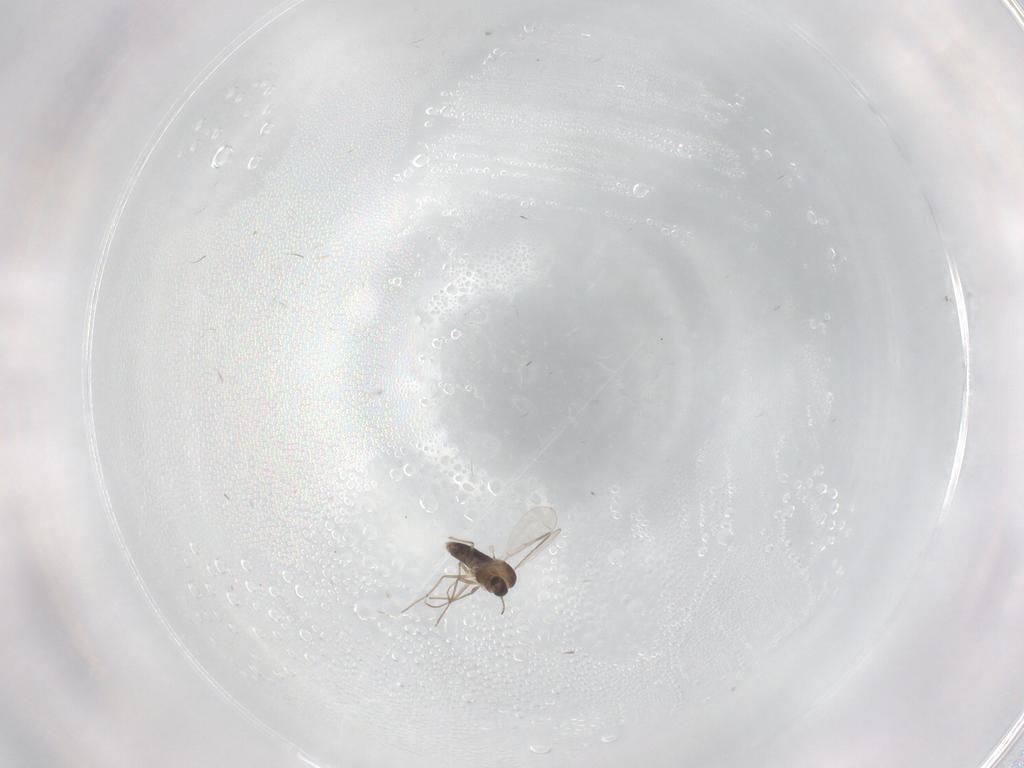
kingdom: Animalia
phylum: Arthropoda
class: Insecta
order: Diptera
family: Chironomidae
